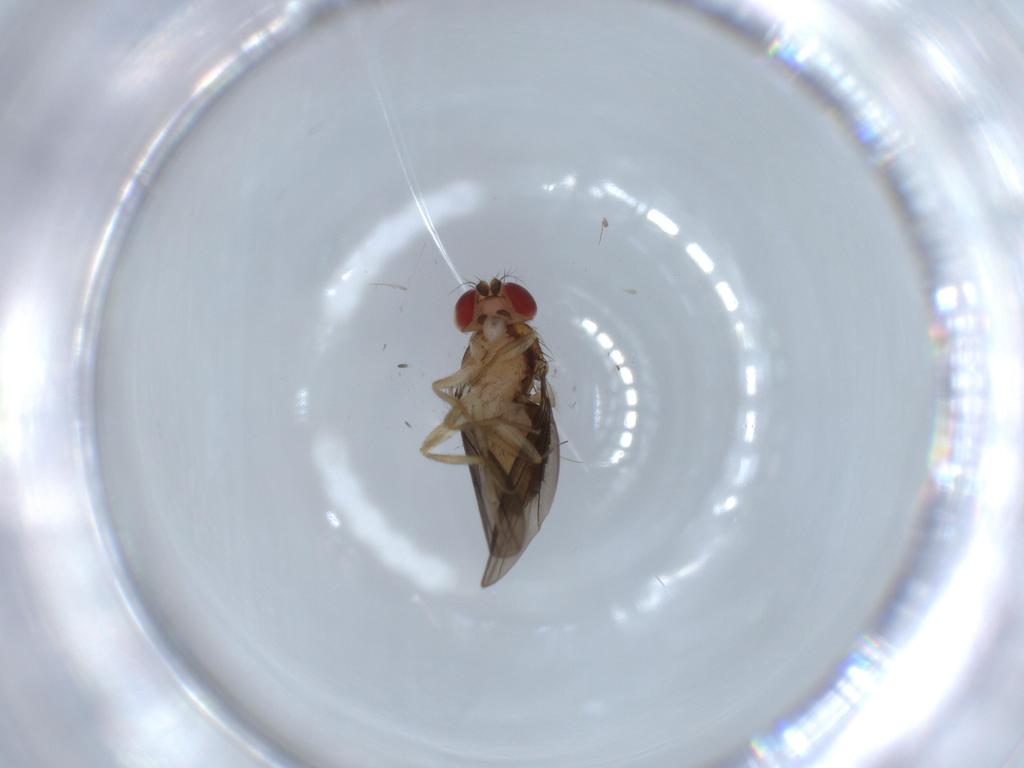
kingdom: Animalia
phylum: Arthropoda
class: Insecta
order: Diptera
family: Drosophilidae
